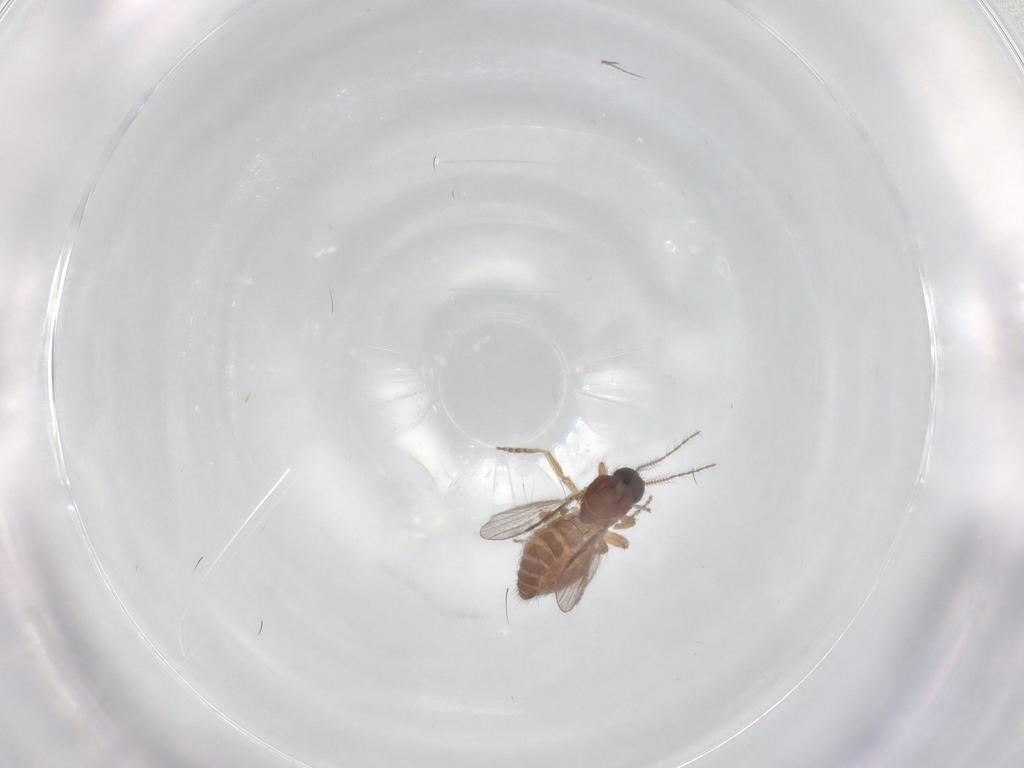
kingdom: Animalia
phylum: Arthropoda
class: Insecta
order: Diptera
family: Ceratopogonidae
